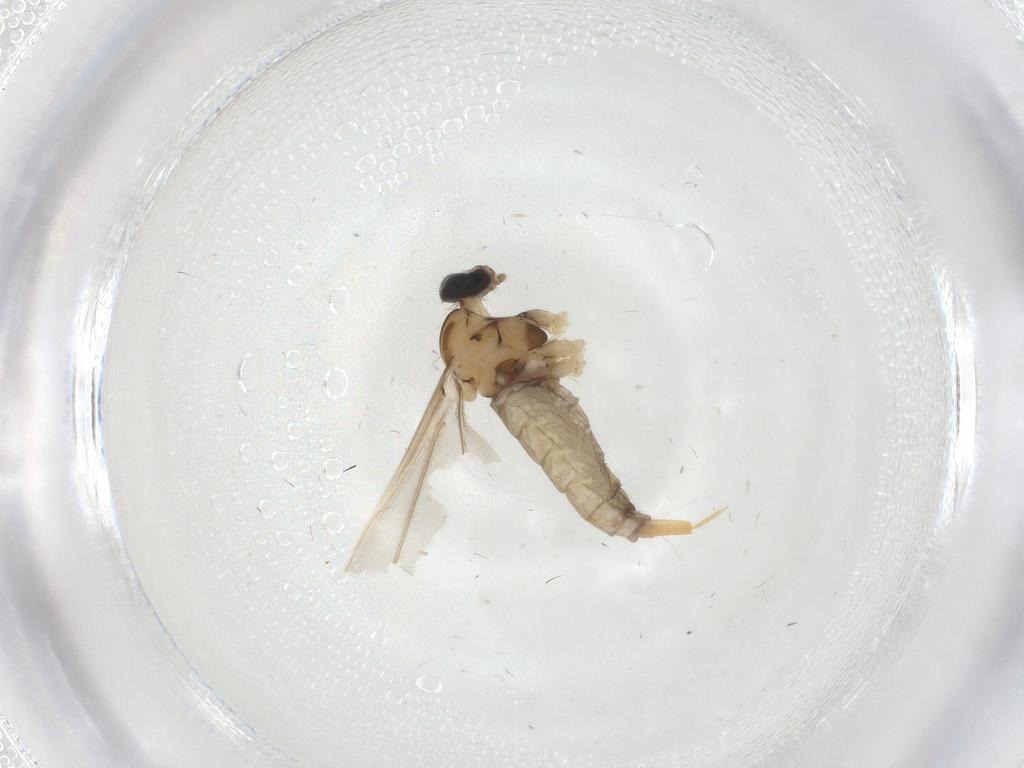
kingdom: Animalia
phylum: Arthropoda
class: Insecta
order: Diptera
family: Cecidomyiidae
